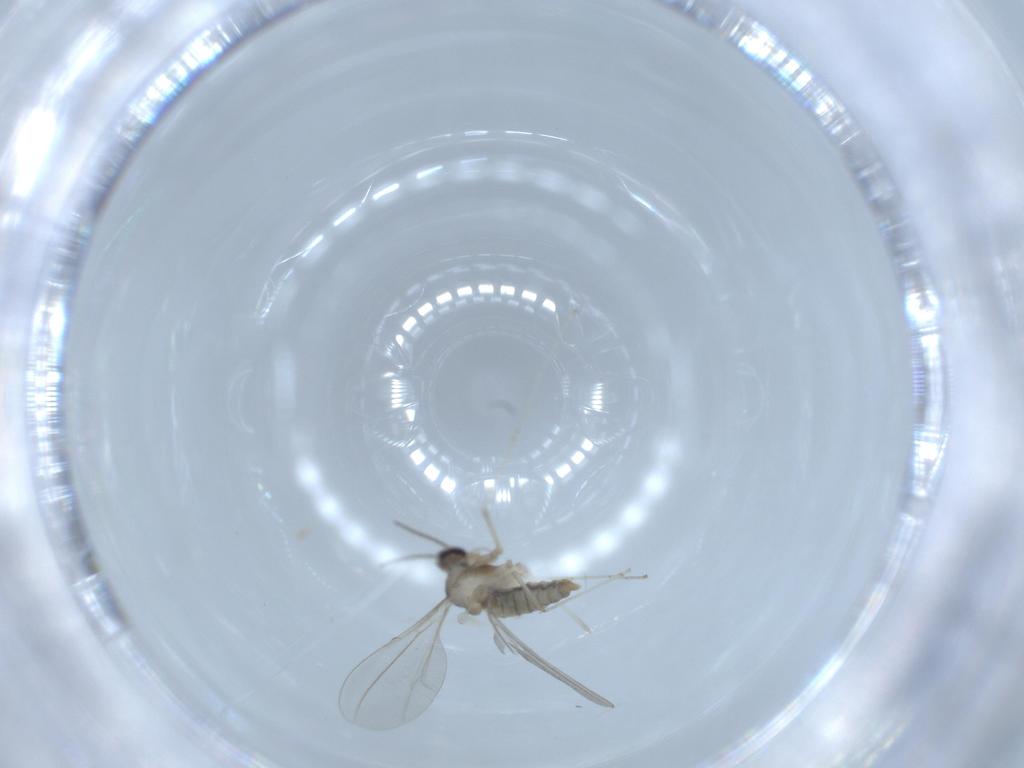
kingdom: Animalia
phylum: Arthropoda
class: Insecta
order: Diptera
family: Cecidomyiidae
